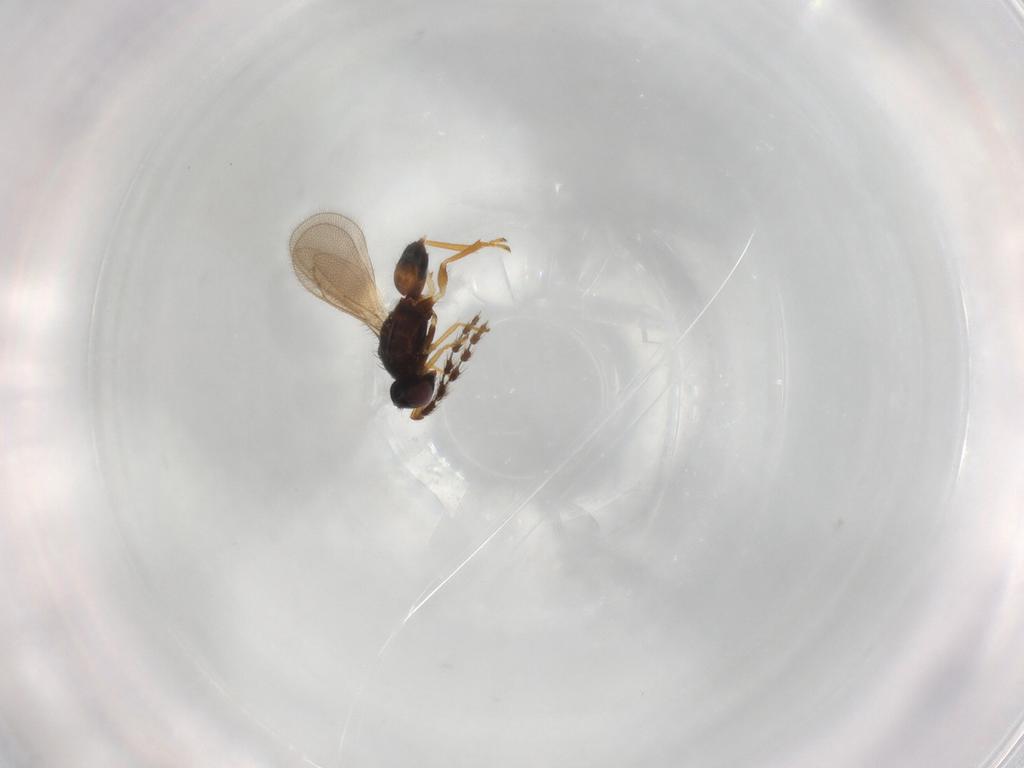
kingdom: Animalia
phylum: Arthropoda
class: Insecta
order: Hymenoptera
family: Eulophidae
